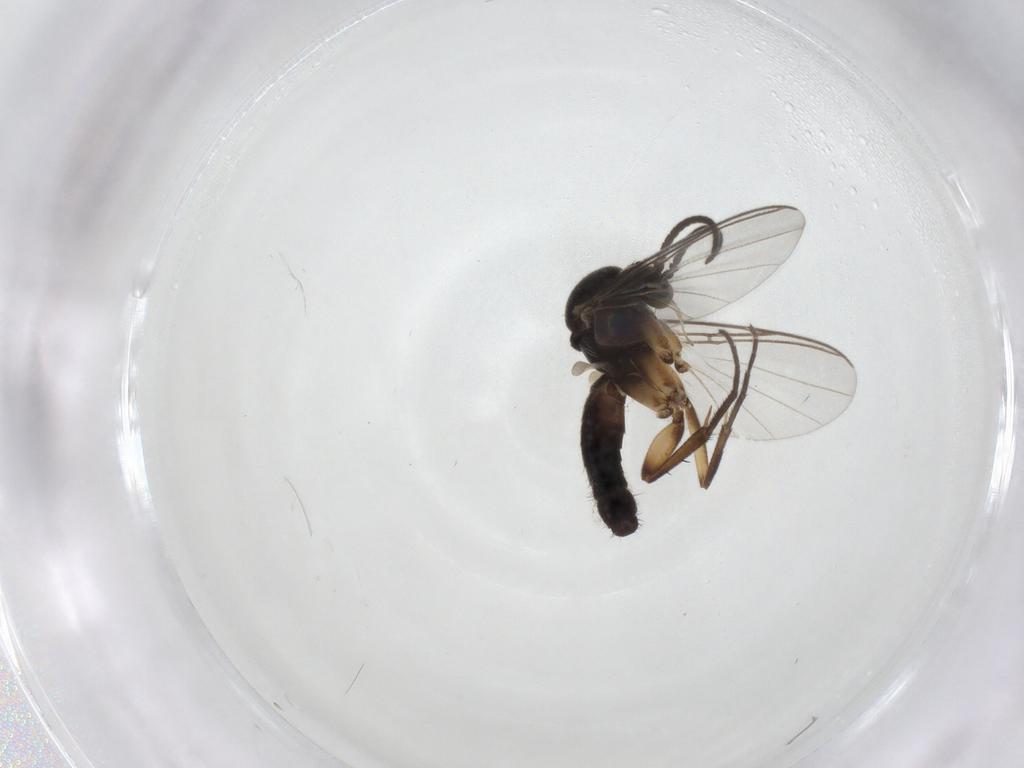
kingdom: Animalia
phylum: Arthropoda
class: Insecta
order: Diptera
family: Mycetophilidae
